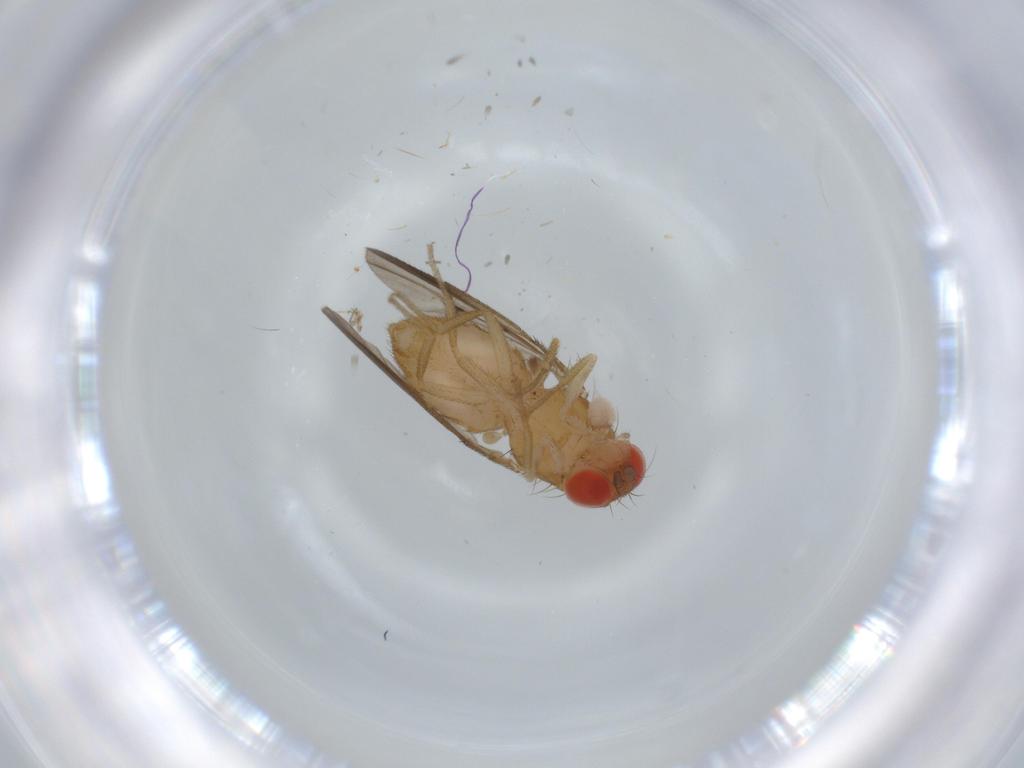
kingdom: Animalia
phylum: Arthropoda
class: Insecta
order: Diptera
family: Drosophilidae
